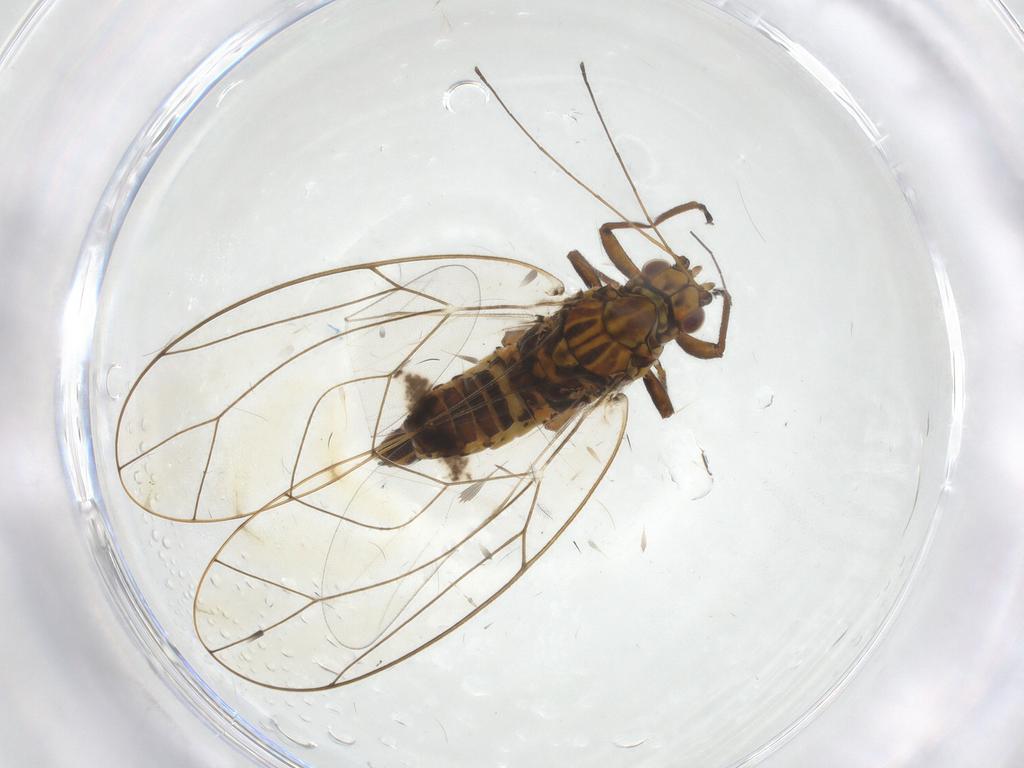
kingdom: Animalia
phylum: Arthropoda
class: Insecta
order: Hemiptera
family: Triozidae
